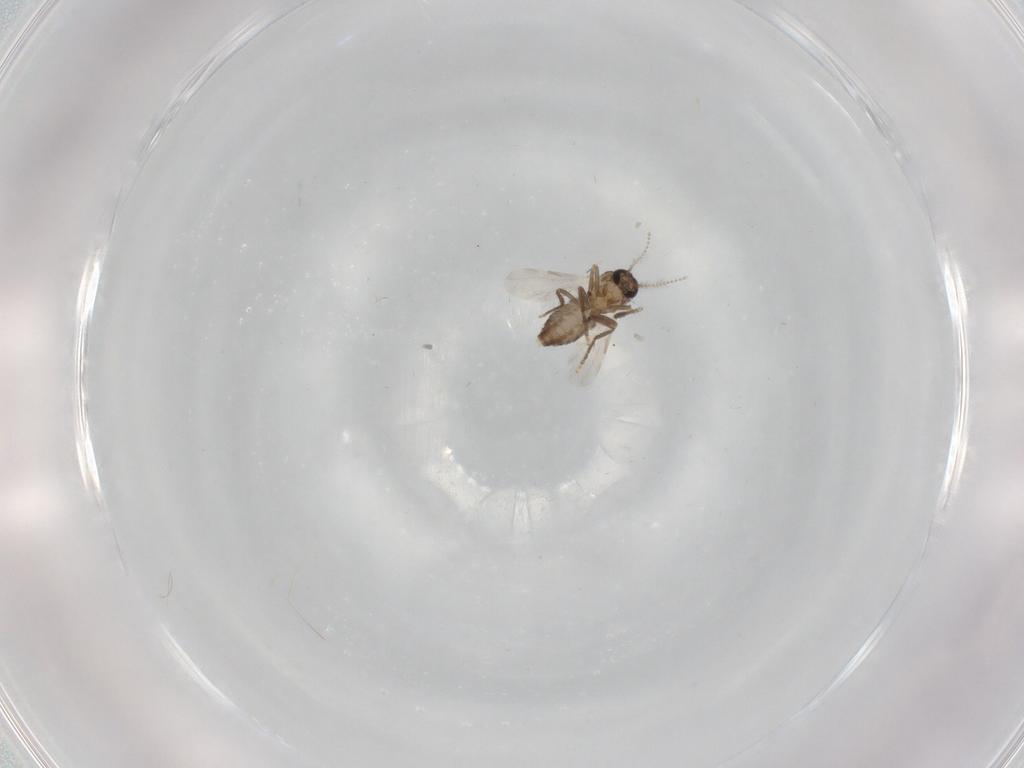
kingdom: Animalia
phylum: Arthropoda
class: Insecta
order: Diptera
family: Ceratopogonidae
